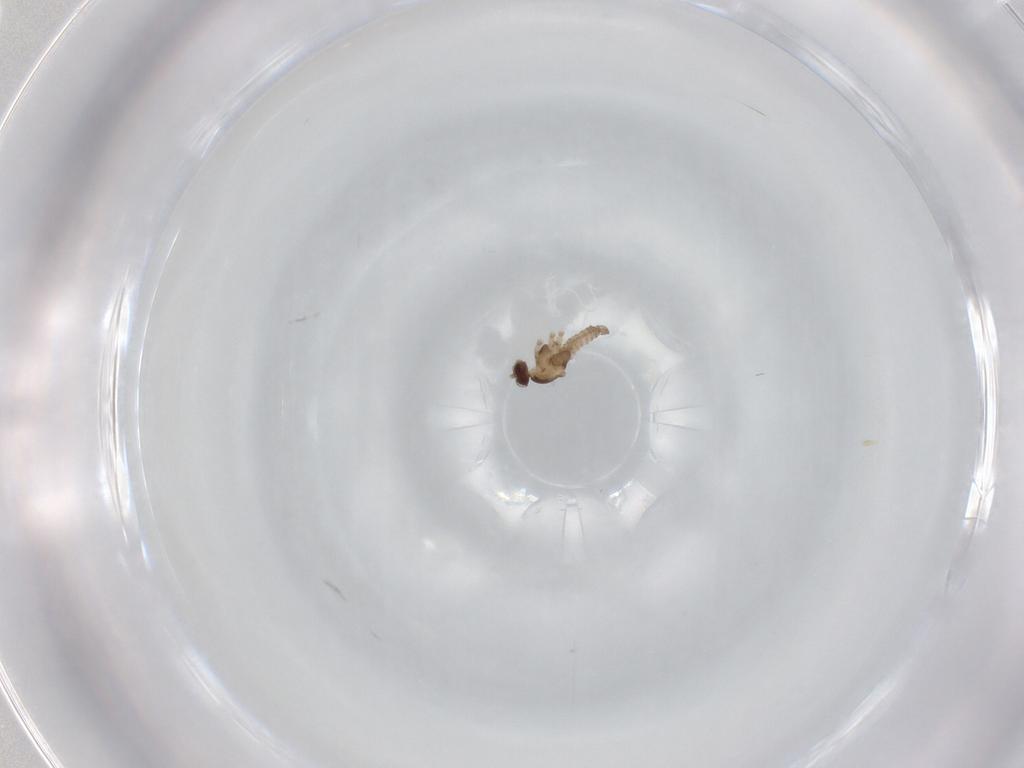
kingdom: Animalia
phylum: Arthropoda
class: Insecta
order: Diptera
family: Cecidomyiidae
